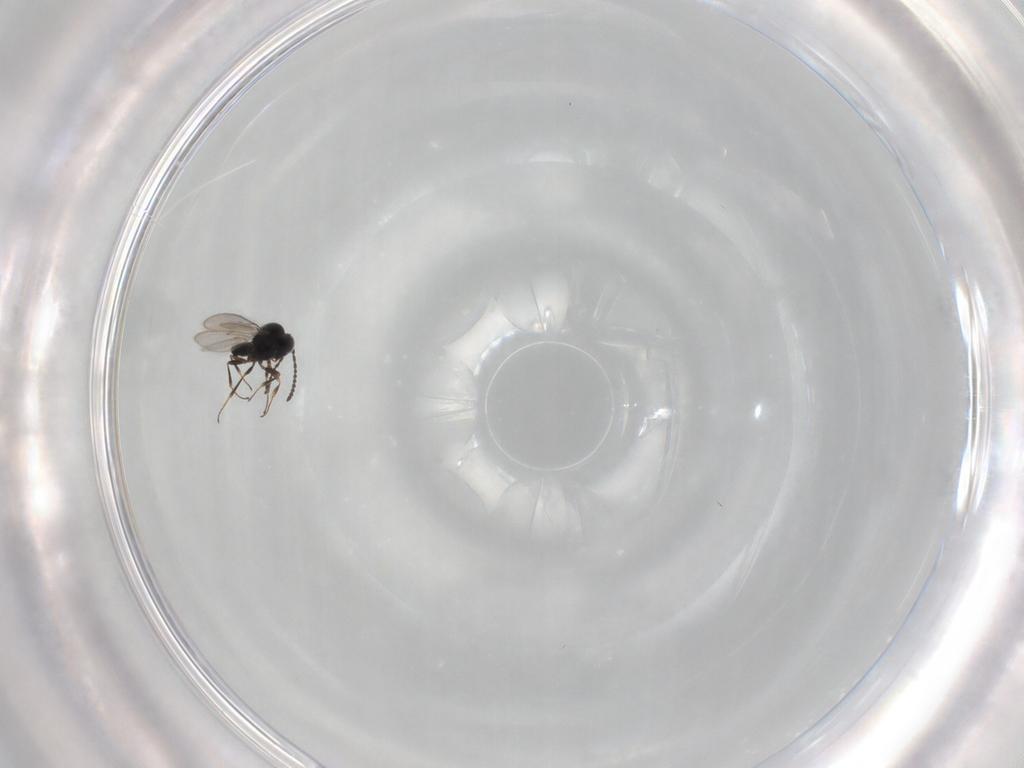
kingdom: Animalia
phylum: Arthropoda
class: Insecta
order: Hymenoptera
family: Scelionidae
